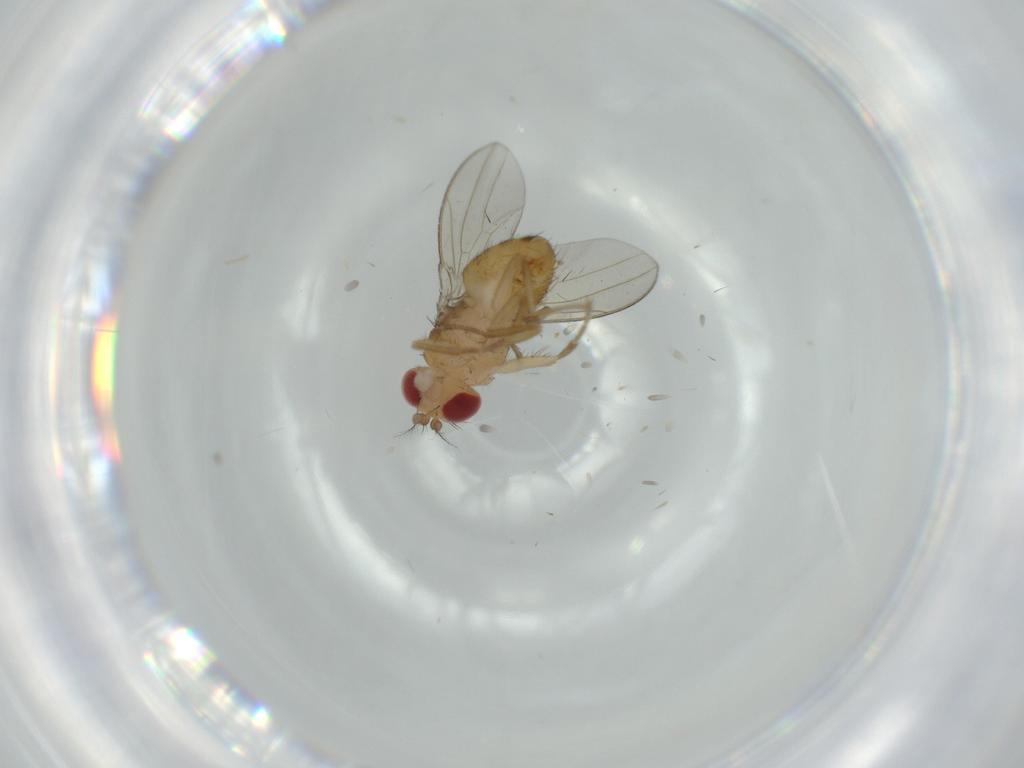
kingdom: Animalia
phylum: Arthropoda
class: Insecta
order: Diptera
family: Drosophilidae
